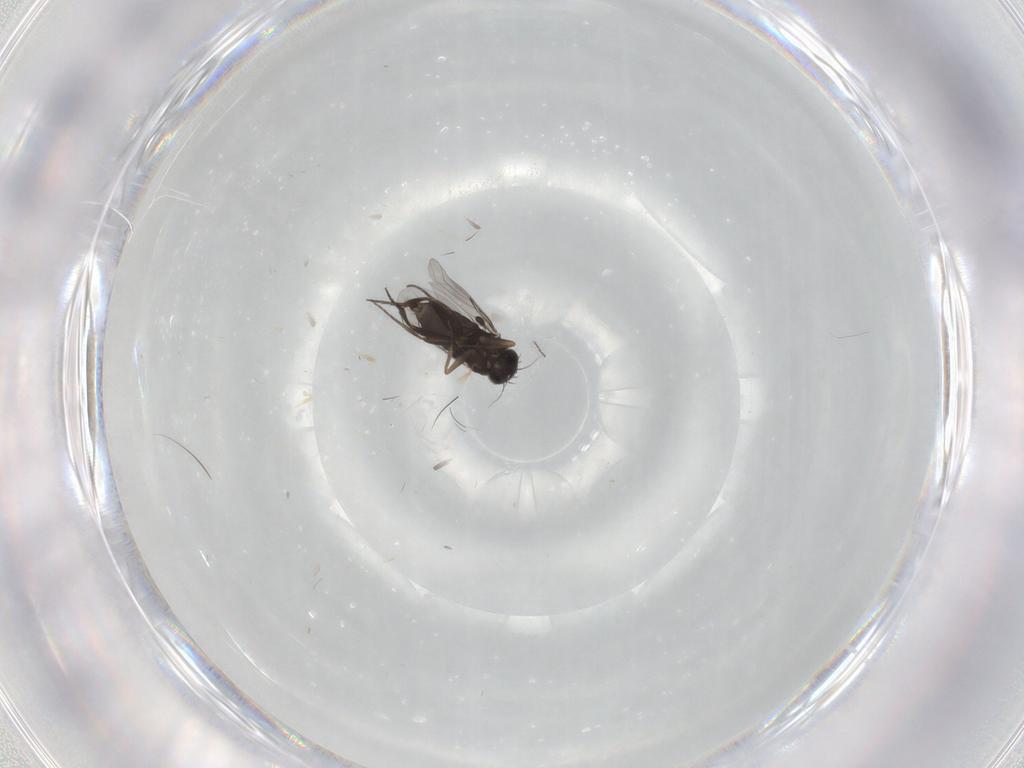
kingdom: Animalia
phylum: Arthropoda
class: Insecta
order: Diptera
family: Phoridae
